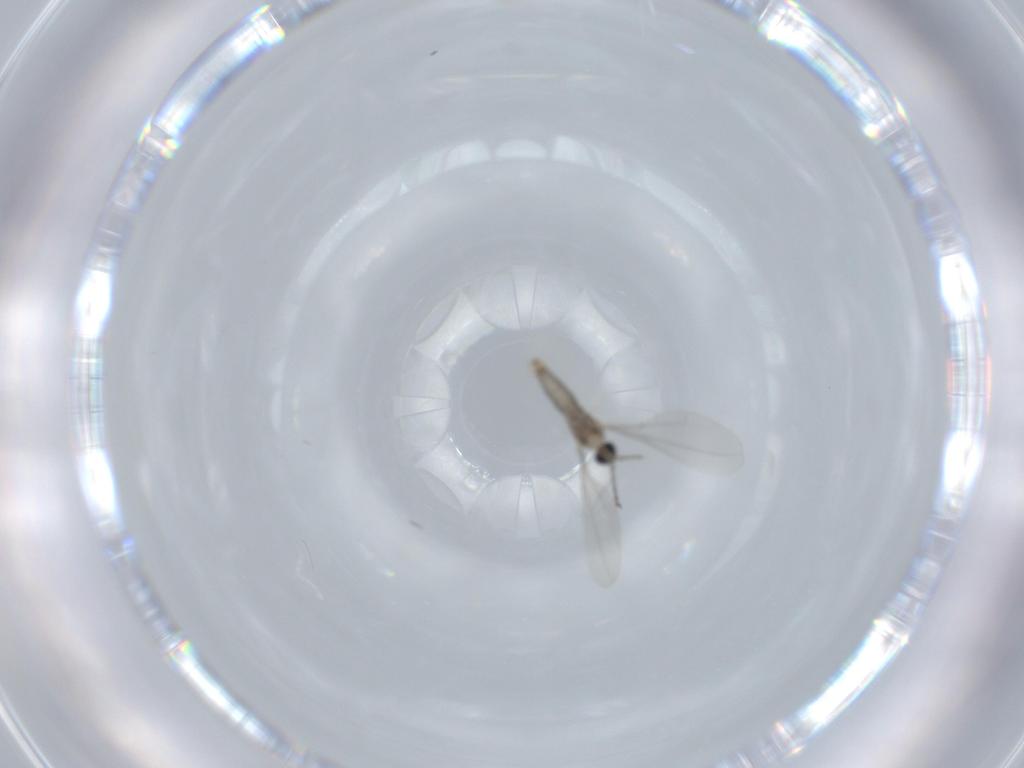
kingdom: Animalia
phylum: Arthropoda
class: Insecta
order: Diptera
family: Cecidomyiidae
